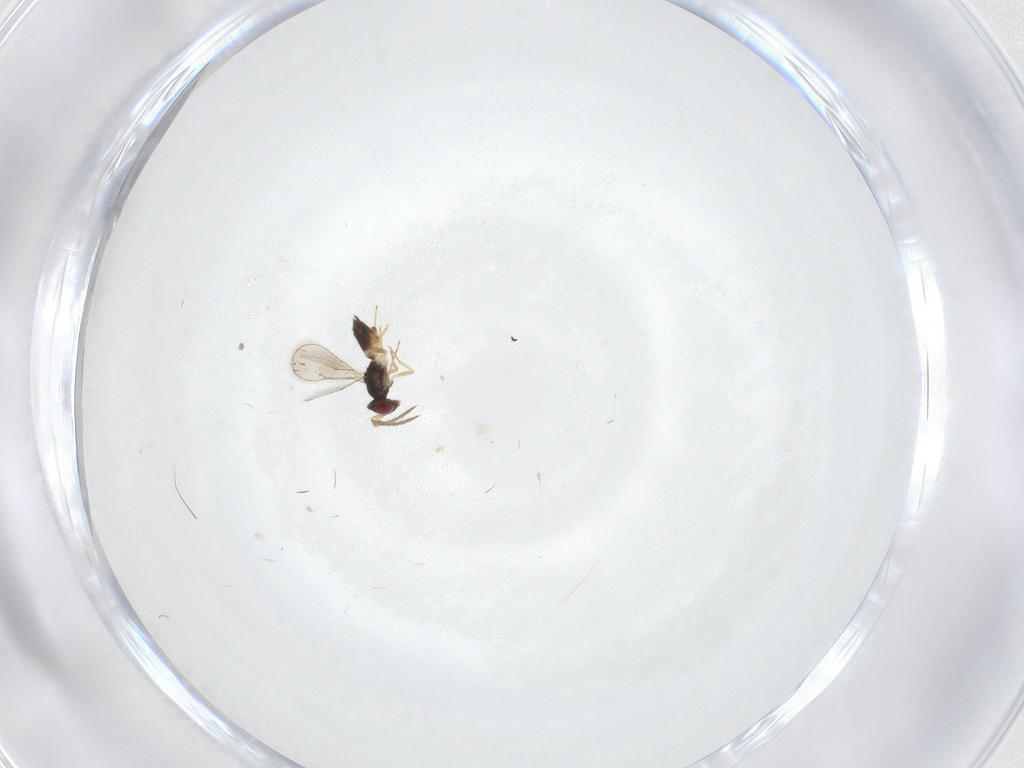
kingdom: Animalia
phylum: Arthropoda
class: Insecta
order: Hymenoptera
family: Eulophidae
